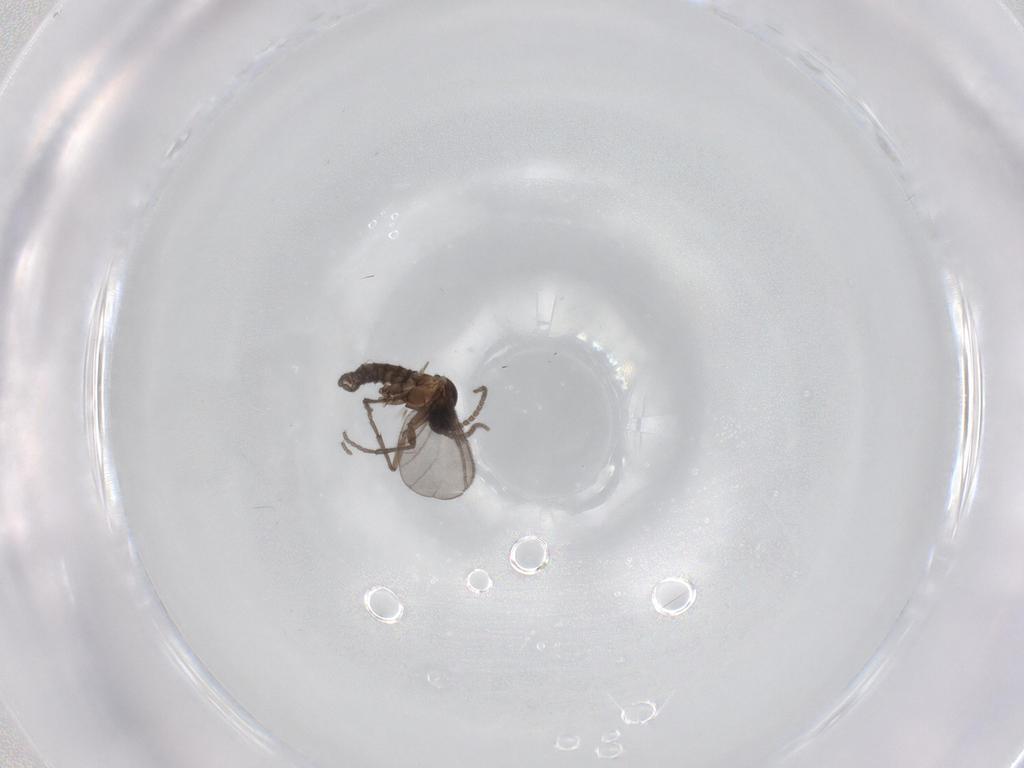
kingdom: Animalia
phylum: Arthropoda
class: Insecta
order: Diptera
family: Sciaridae
